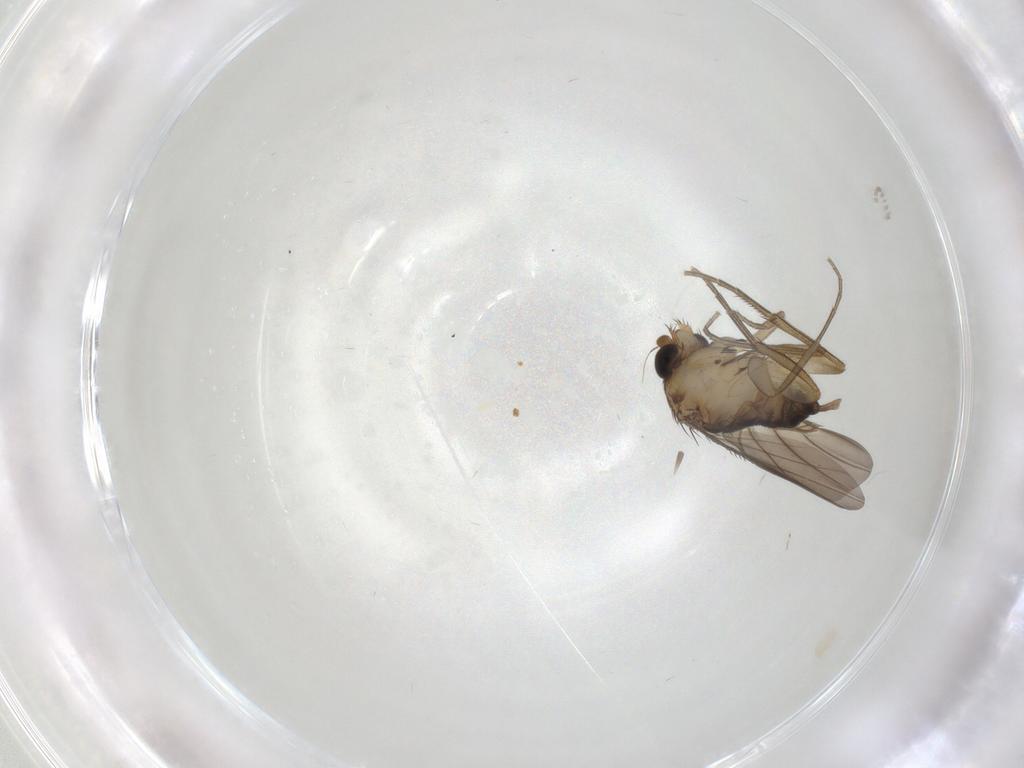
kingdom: Animalia
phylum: Arthropoda
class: Insecta
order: Diptera
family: Phoridae
